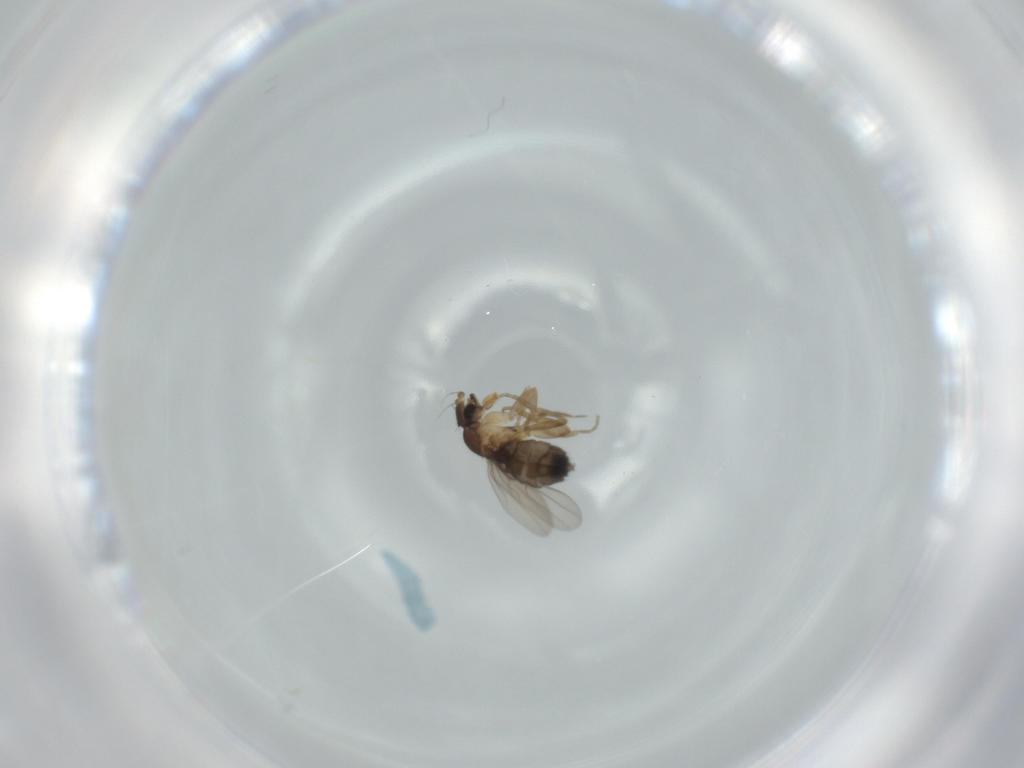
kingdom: Animalia
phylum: Arthropoda
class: Insecta
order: Diptera
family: Phoridae
